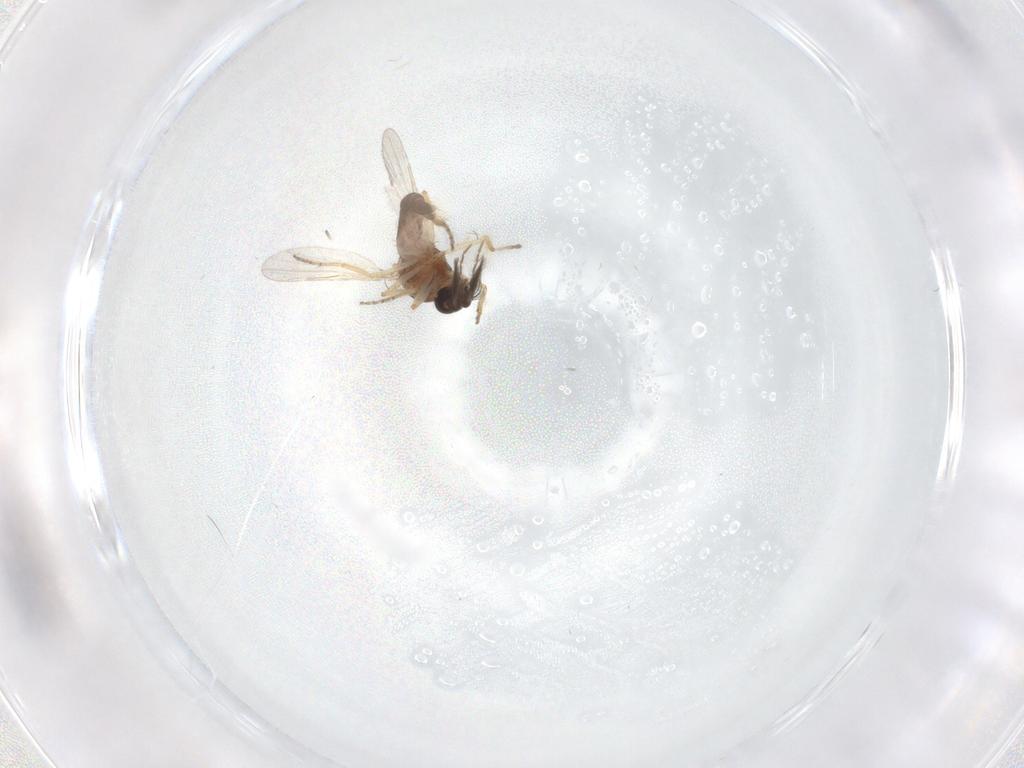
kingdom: Animalia
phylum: Arthropoda
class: Insecta
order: Diptera
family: Ceratopogonidae
